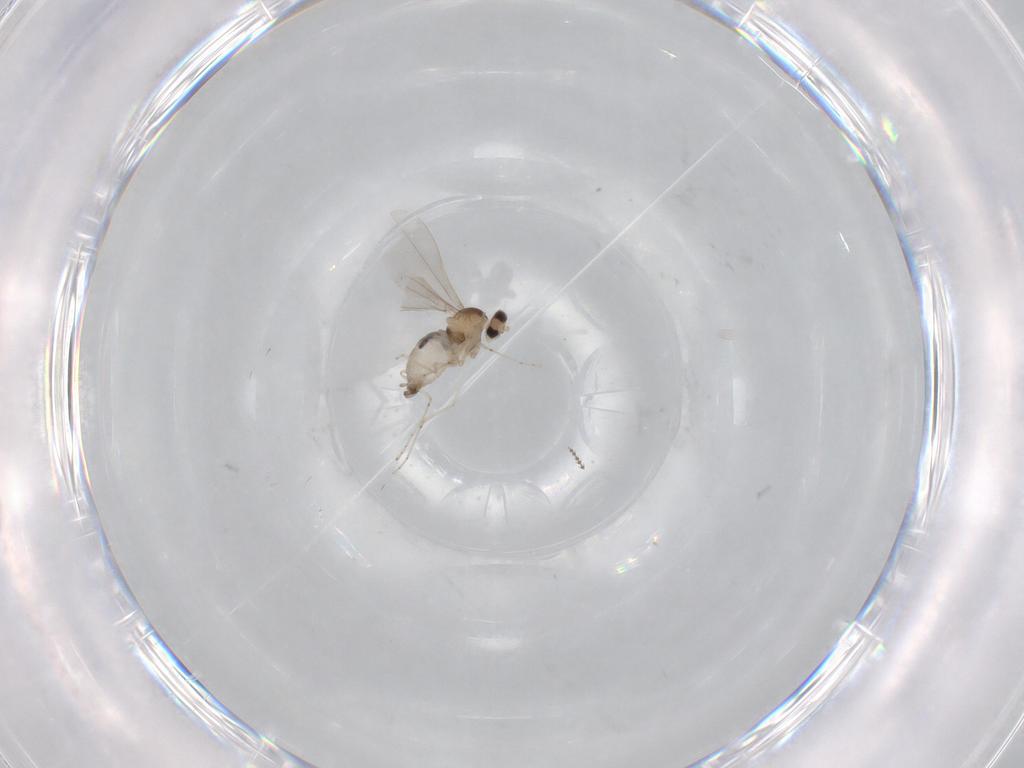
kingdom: Animalia
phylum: Arthropoda
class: Insecta
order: Diptera
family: Cecidomyiidae
